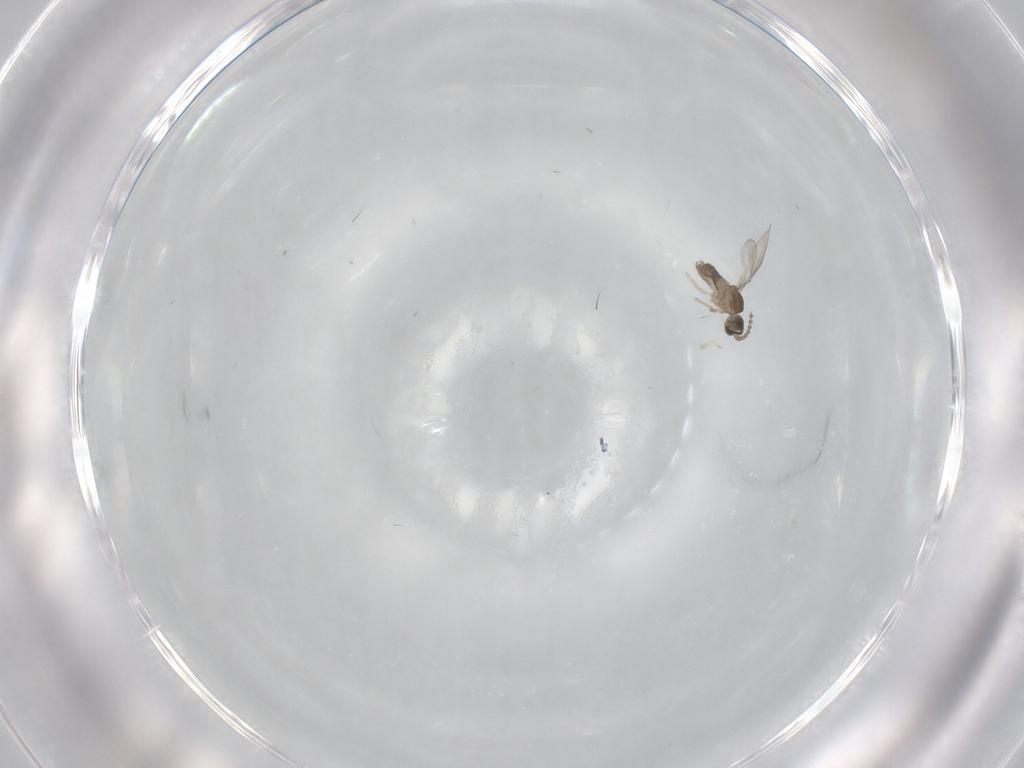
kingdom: Animalia
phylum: Arthropoda
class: Insecta
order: Diptera
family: Cecidomyiidae
